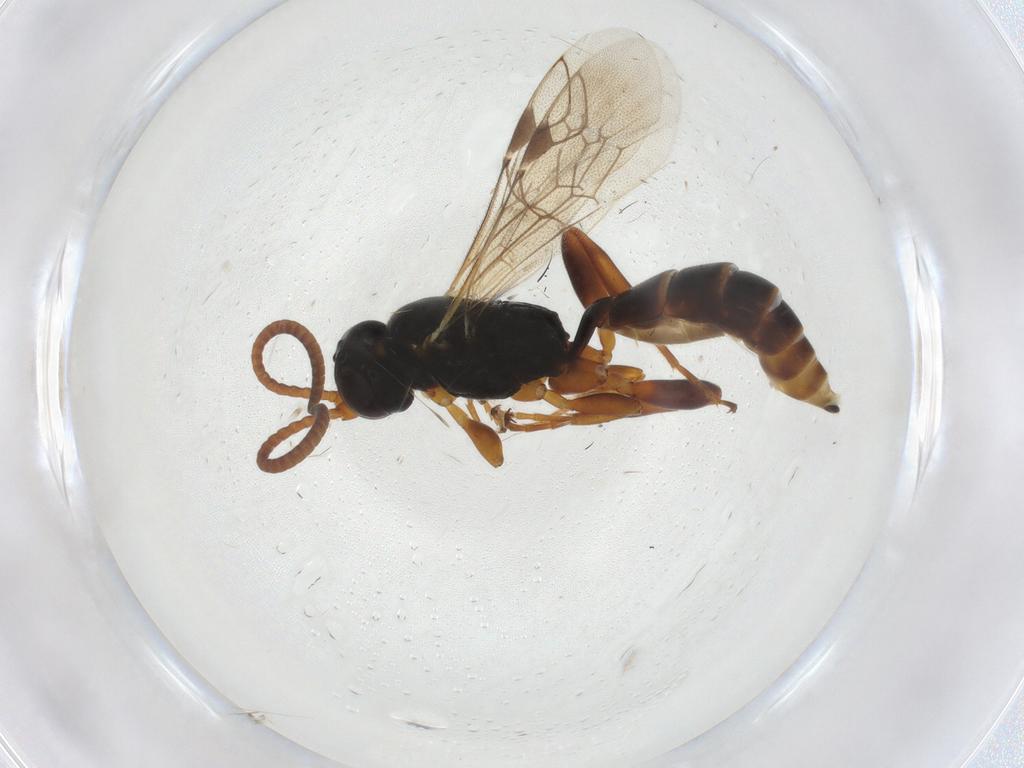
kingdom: Animalia
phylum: Arthropoda
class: Insecta
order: Hymenoptera
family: Ichneumonidae
